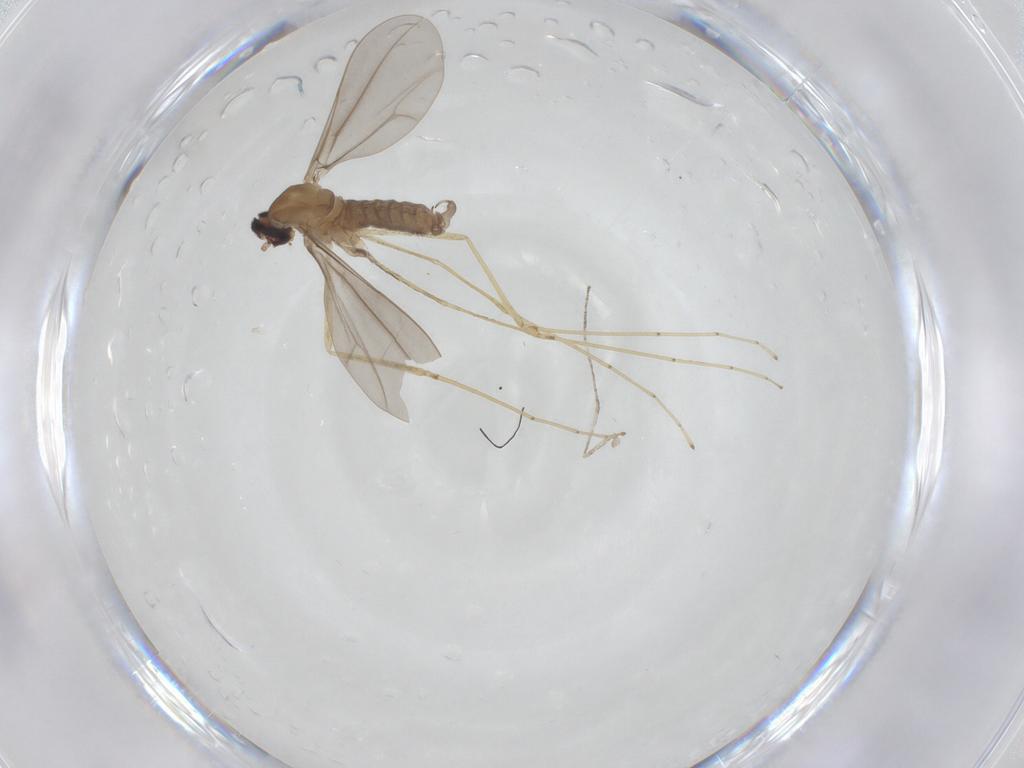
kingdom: Animalia
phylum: Arthropoda
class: Insecta
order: Diptera
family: Cecidomyiidae
